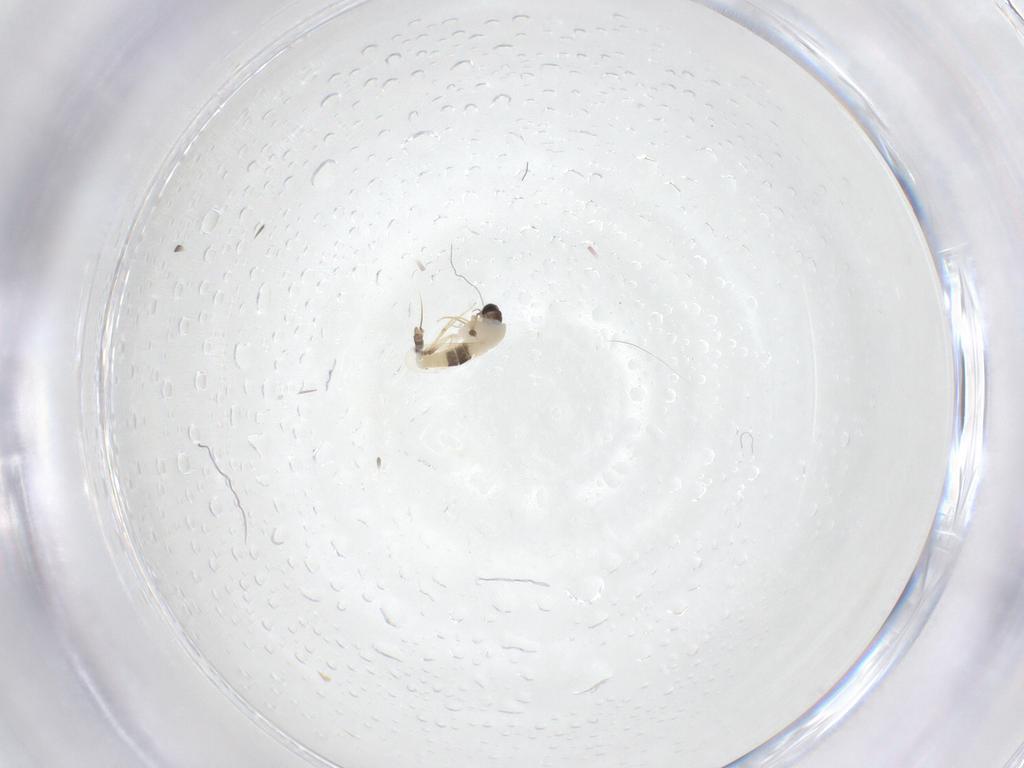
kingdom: Animalia
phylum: Arthropoda
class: Insecta
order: Diptera
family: Chironomidae
